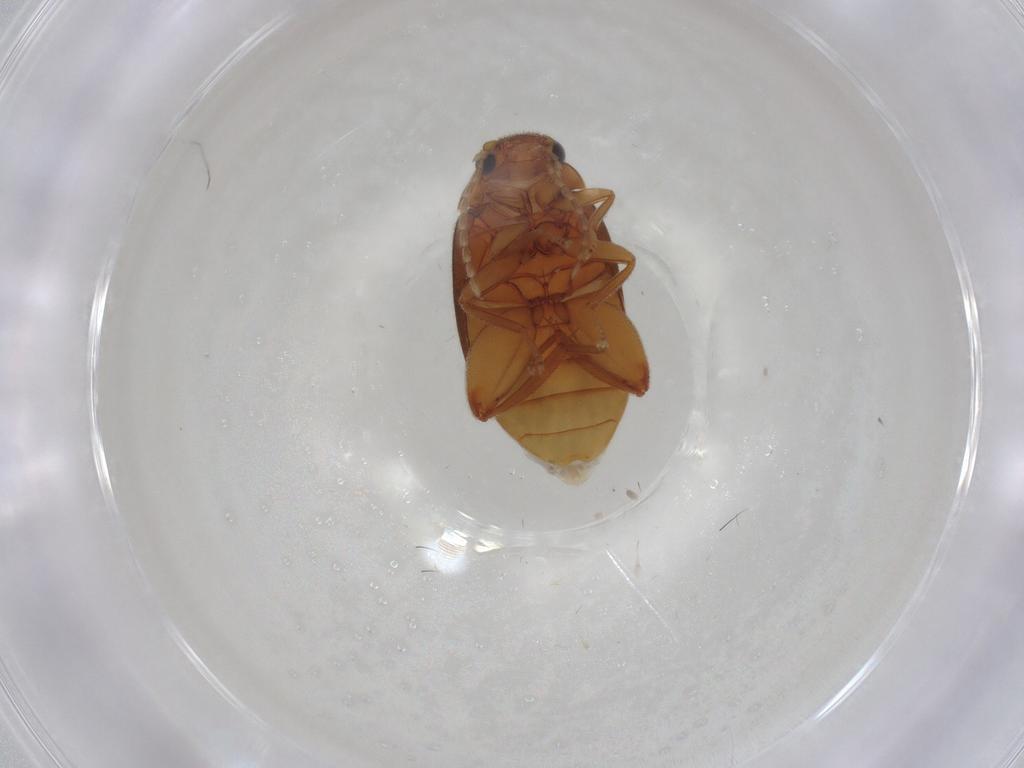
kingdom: Animalia
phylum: Arthropoda
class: Insecta
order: Coleoptera
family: Scirtidae
